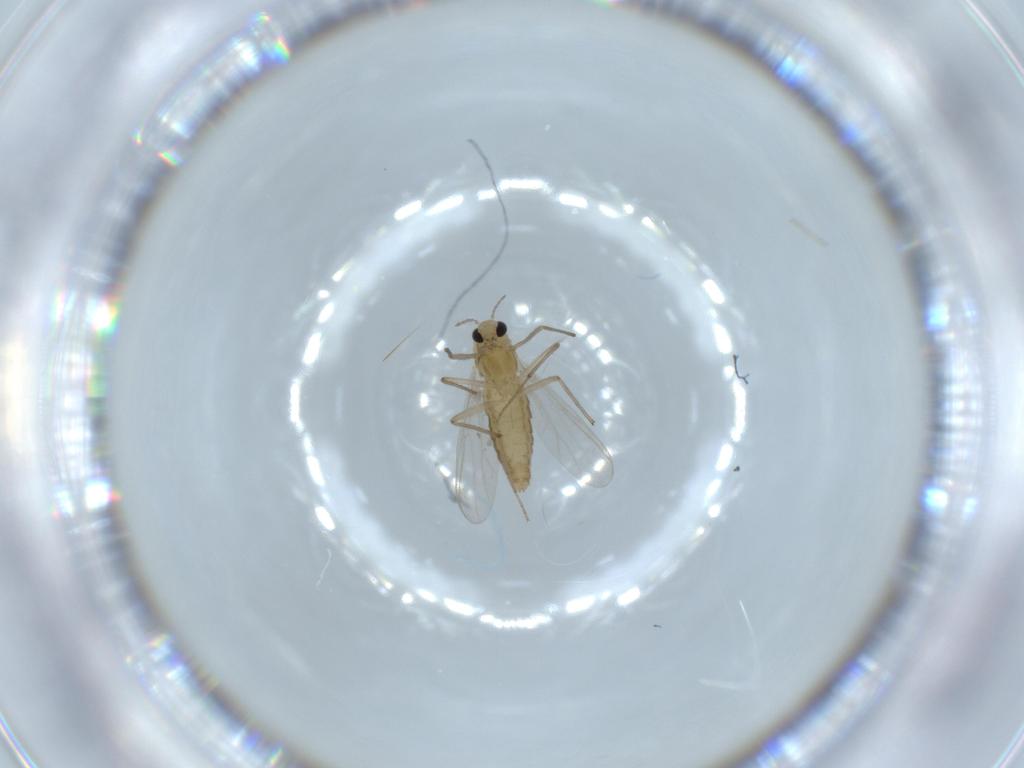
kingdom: Animalia
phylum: Arthropoda
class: Insecta
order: Diptera
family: Chironomidae
